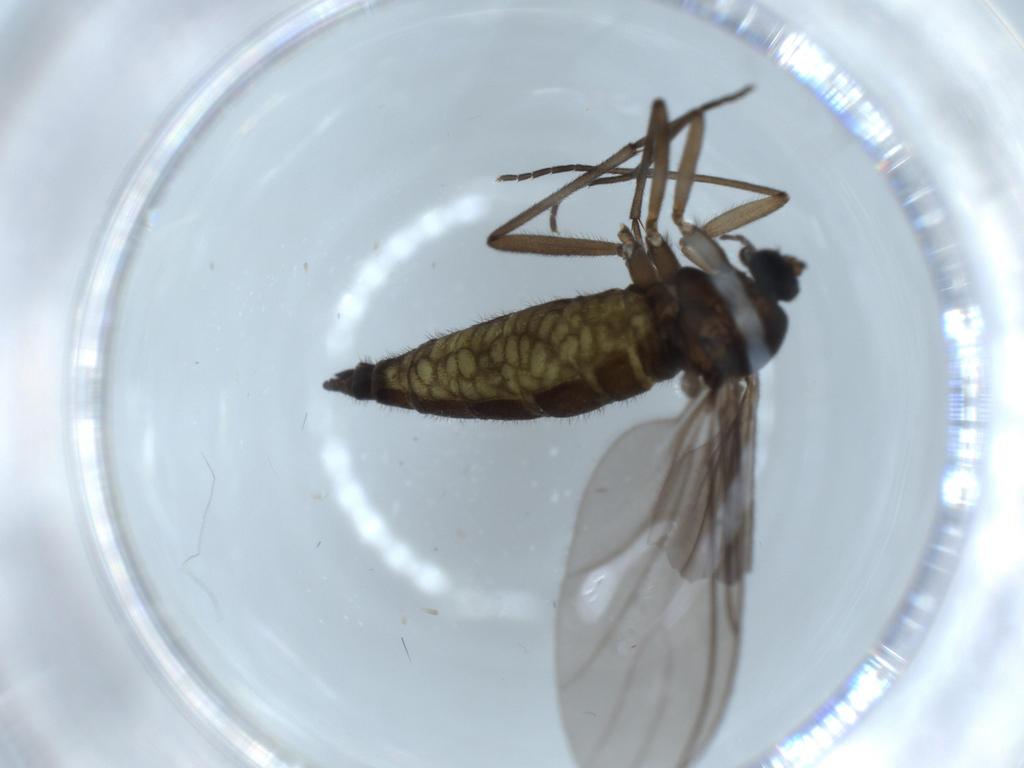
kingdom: Animalia
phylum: Arthropoda
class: Insecta
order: Diptera
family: Sciaridae
